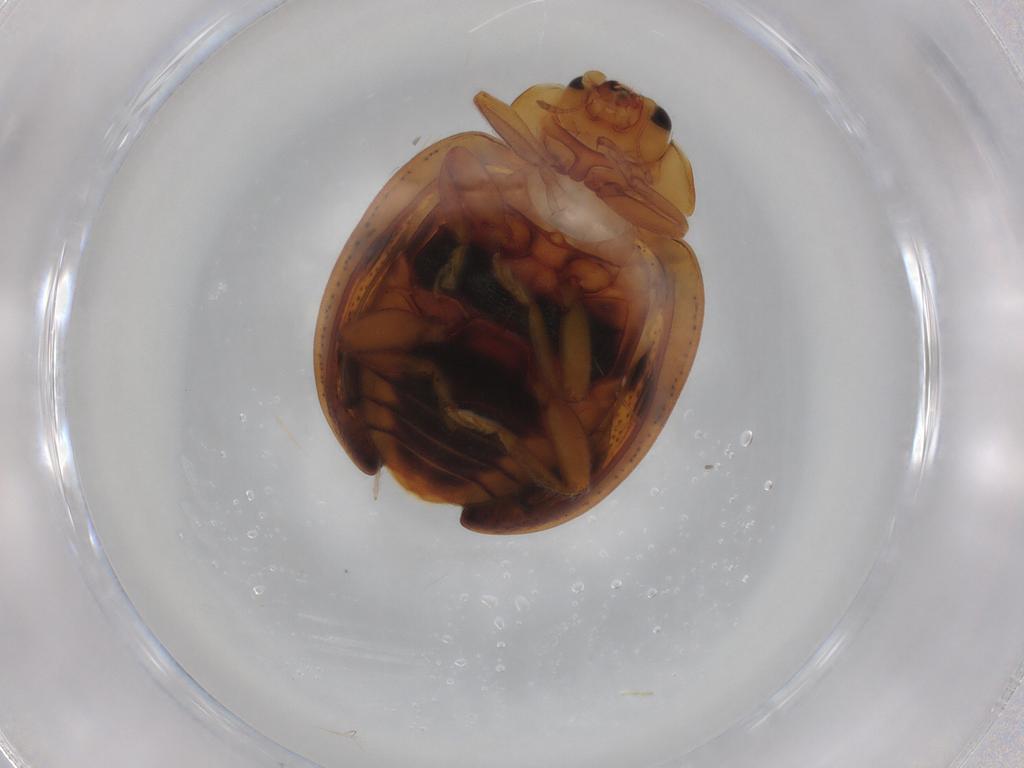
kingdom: Animalia
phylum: Arthropoda
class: Insecta
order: Coleoptera
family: Coccinellidae
